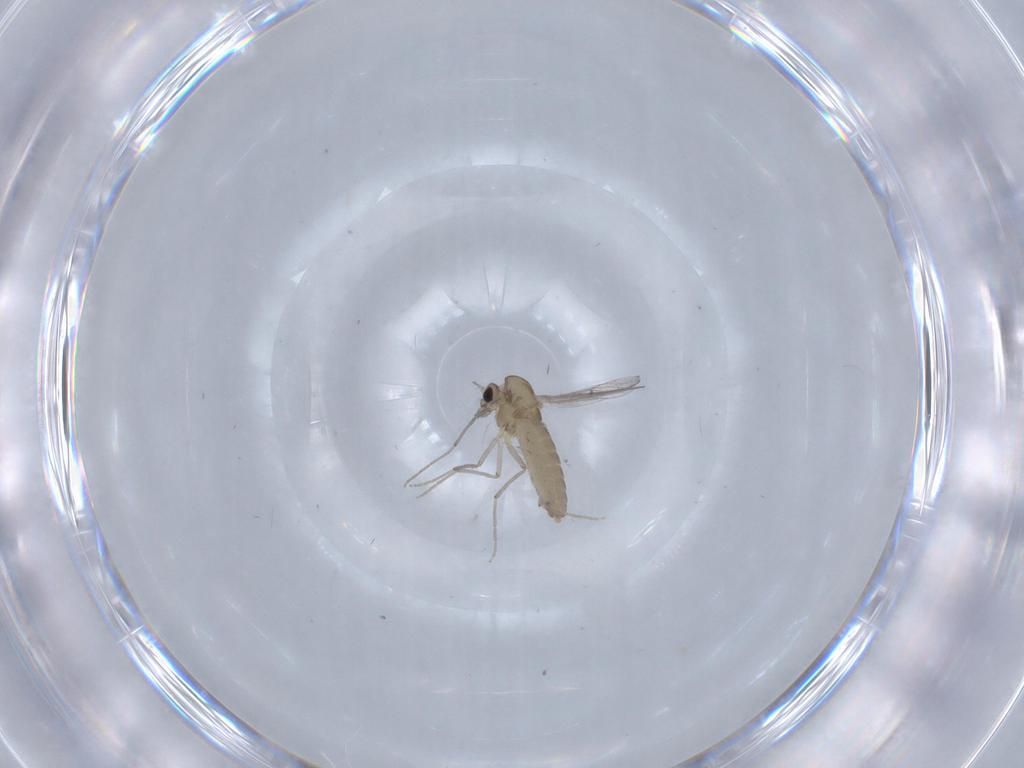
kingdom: Animalia
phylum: Arthropoda
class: Insecta
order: Diptera
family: Chironomidae
